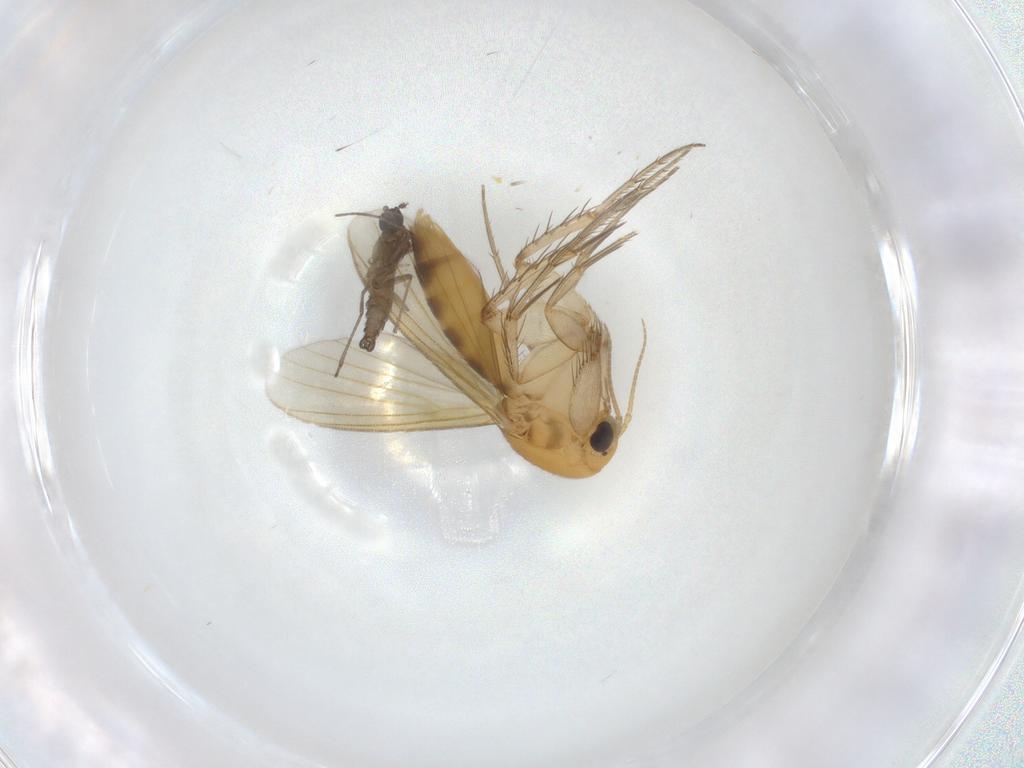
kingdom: Animalia
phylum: Arthropoda
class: Insecta
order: Diptera
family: Mycetophilidae
